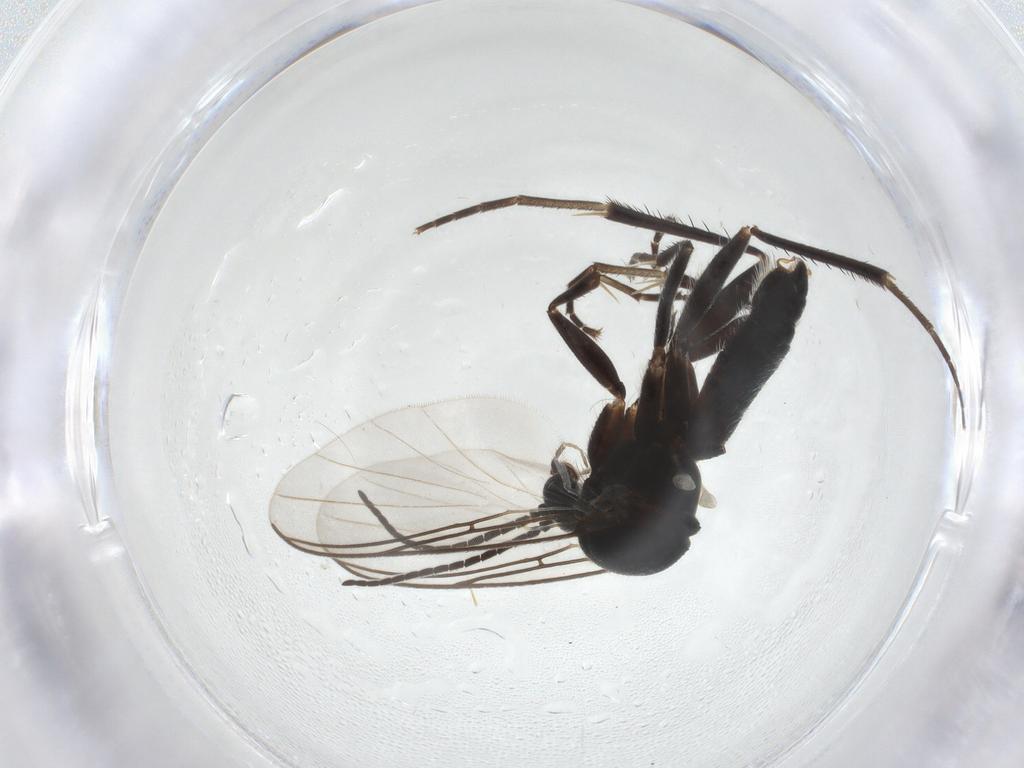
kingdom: Animalia
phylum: Arthropoda
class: Insecta
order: Diptera
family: Mycetophilidae
